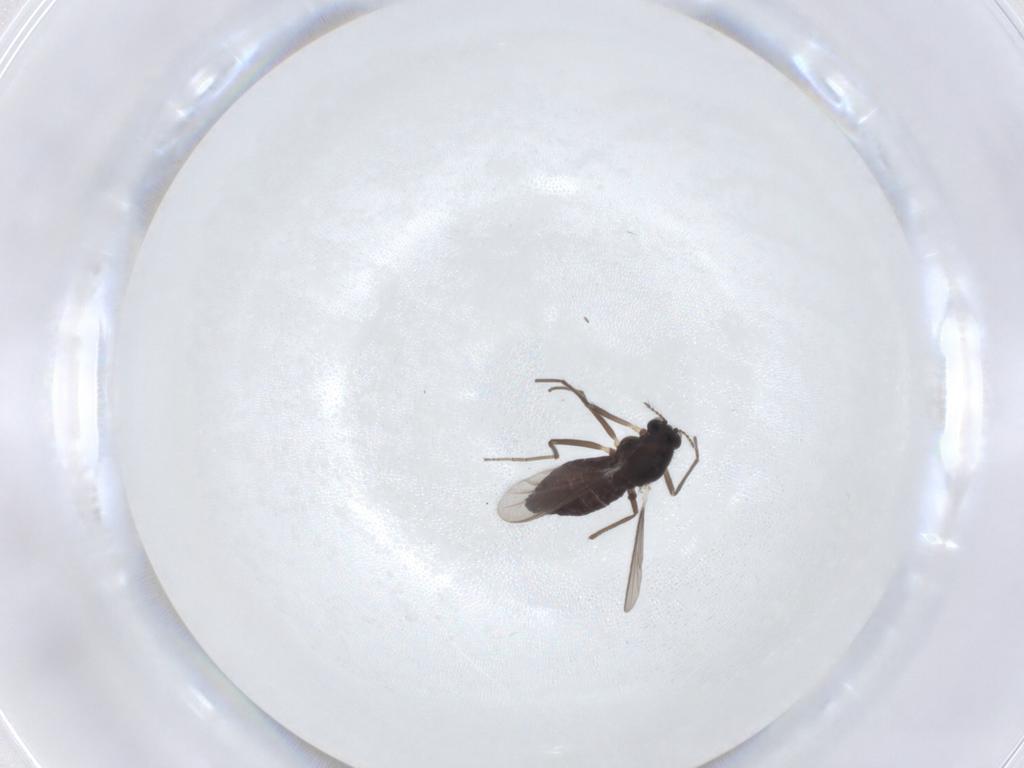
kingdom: Animalia
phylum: Arthropoda
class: Insecta
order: Diptera
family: Chironomidae
